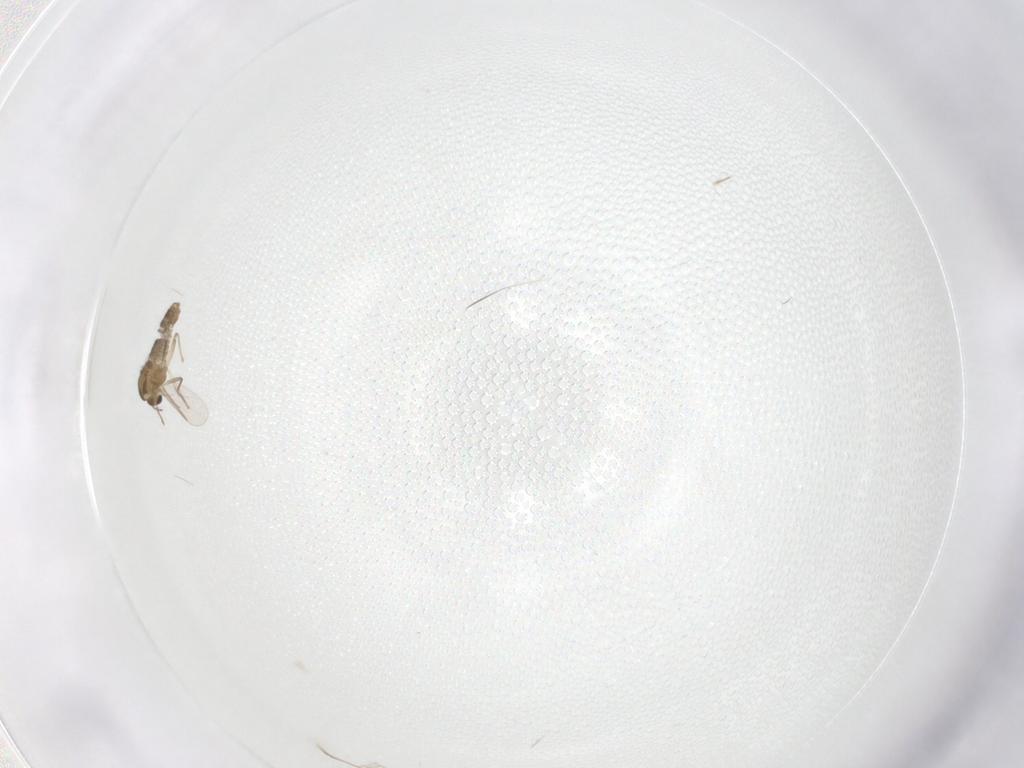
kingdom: Animalia
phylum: Arthropoda
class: Insecta
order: Diptera
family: Chironomidae
